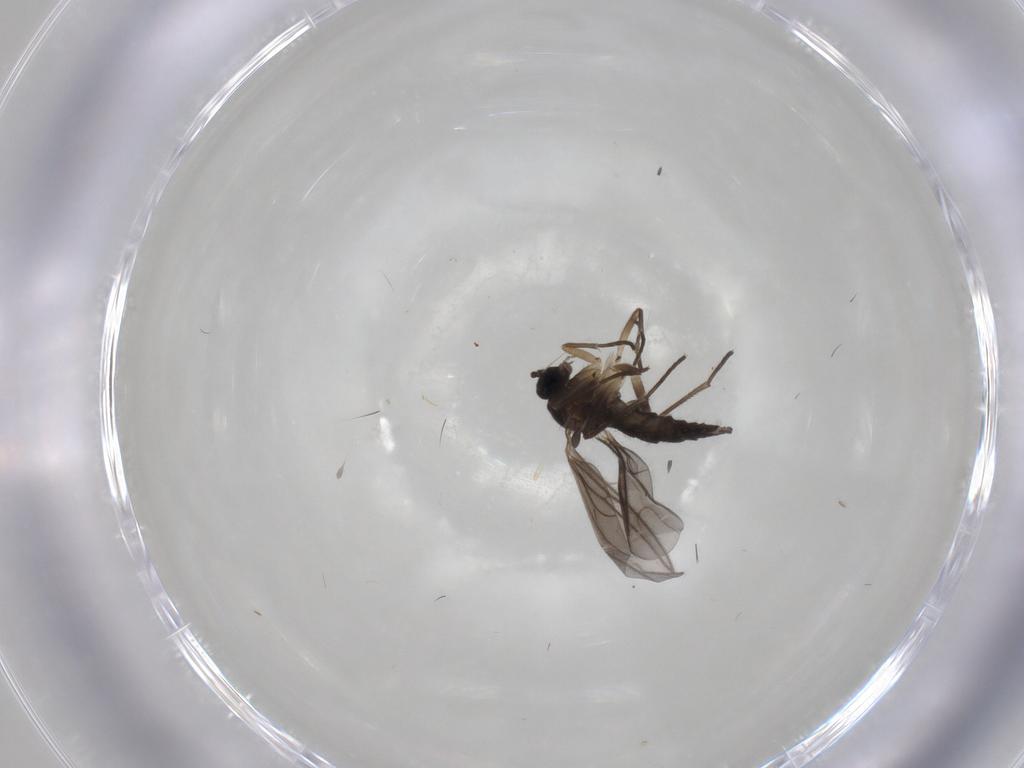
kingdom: Animalia
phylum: Arthropoda
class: Insecta
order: Diptera
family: Sciaridae
